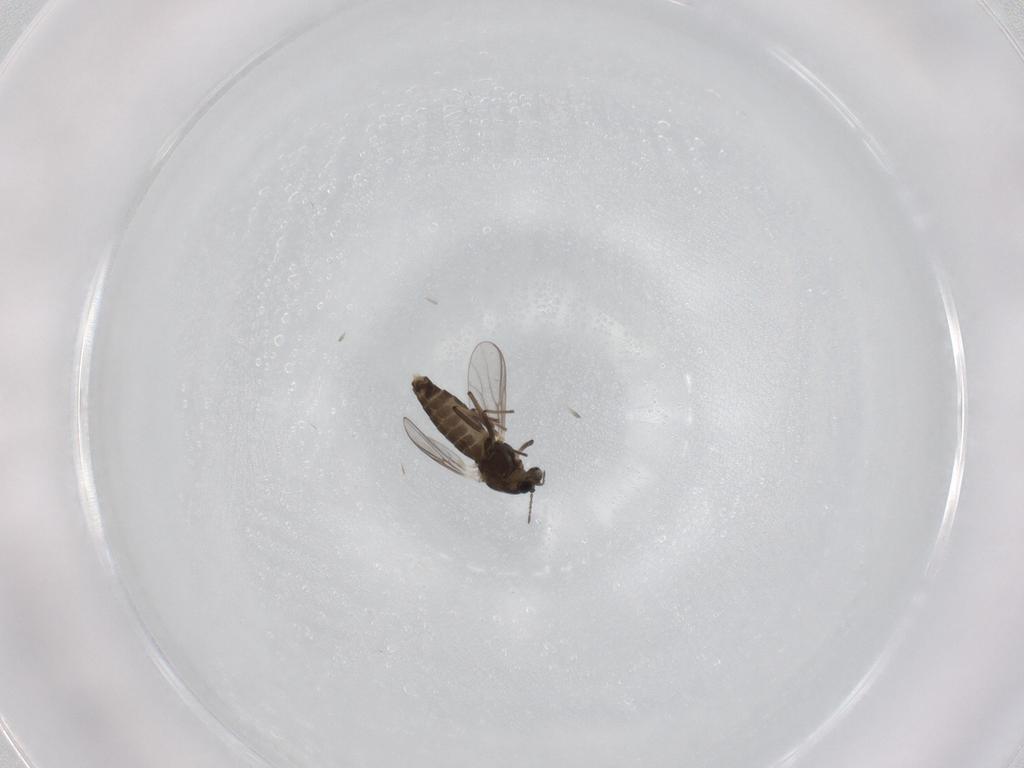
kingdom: Animalia
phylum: Arthropoda
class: Insecta
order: Diptera
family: Chironomidae
